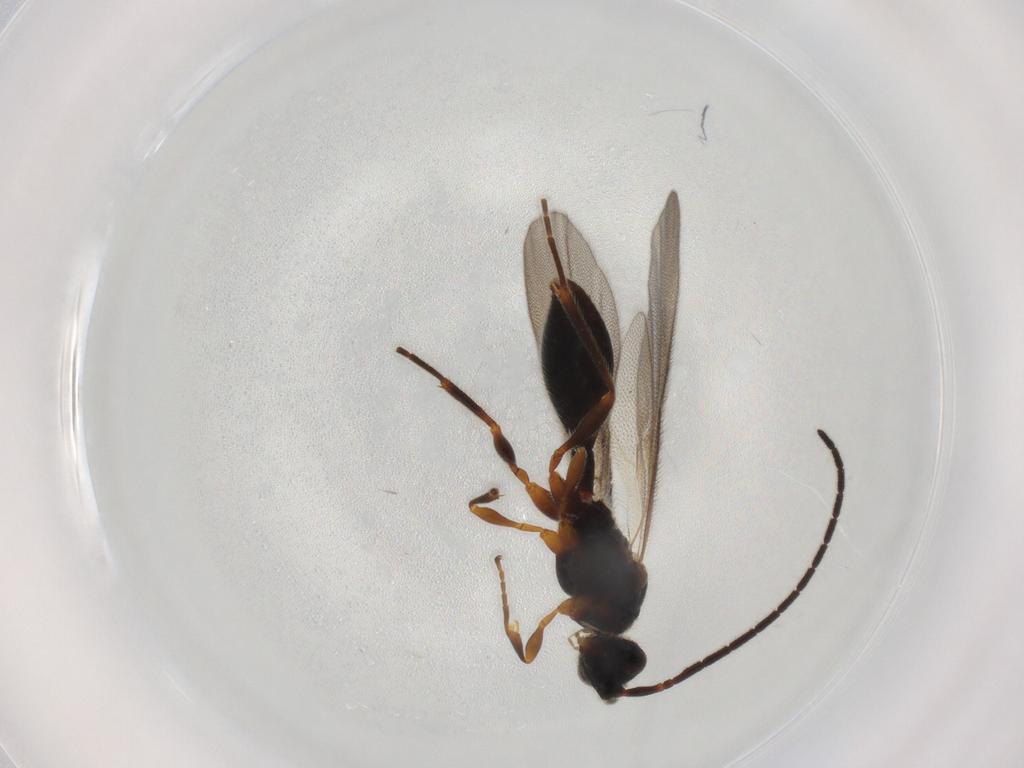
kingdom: Animalia
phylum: Arthropoda
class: Insecta
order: Hymenoptera
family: Diapriidae
